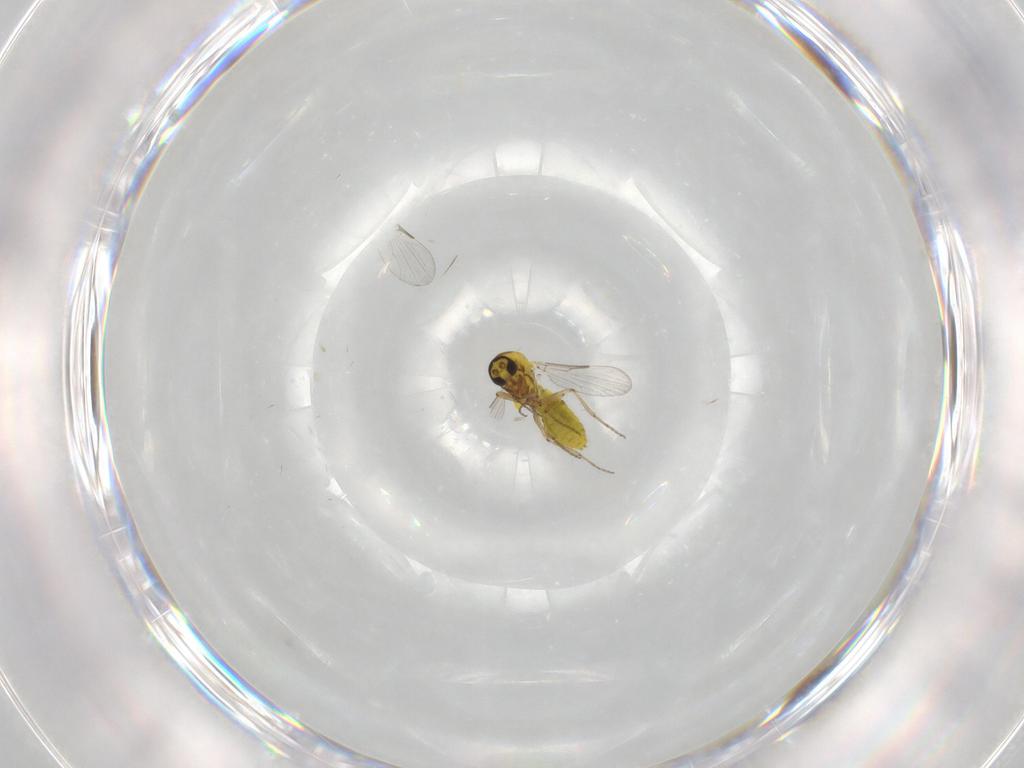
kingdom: Animalia
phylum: Arthropoda
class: Insecta
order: Diptera
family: Ceratopogonidae
